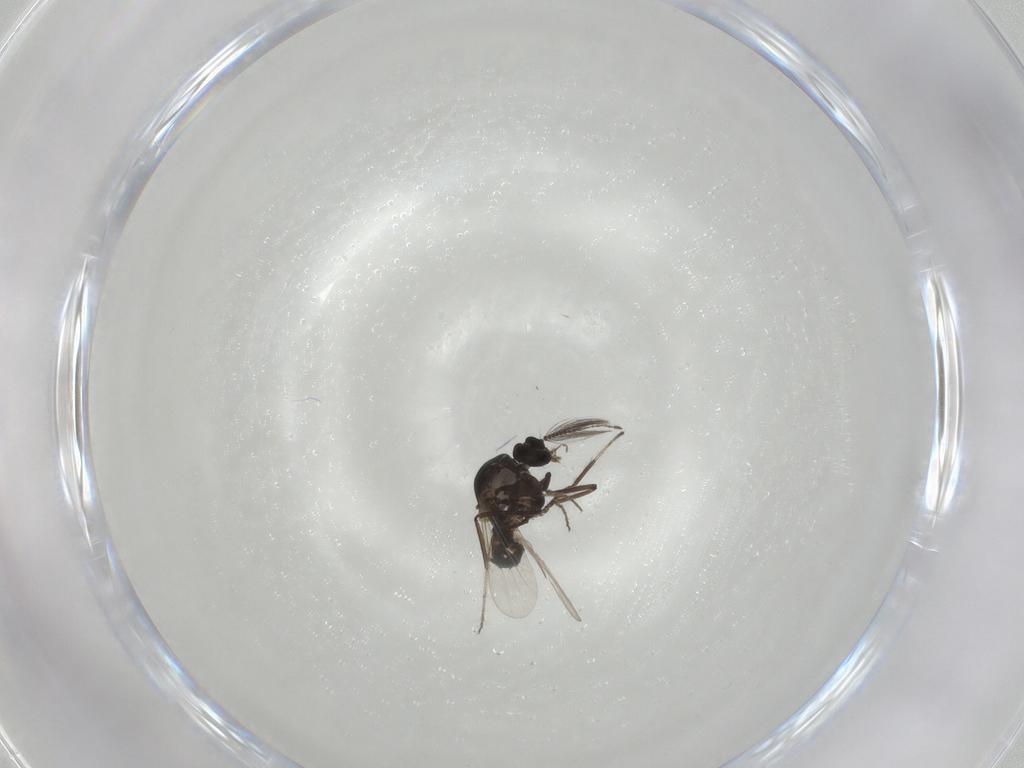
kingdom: Animalia
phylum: Arthropoda
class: Insecta
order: Diptera
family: Ceratopogonidae
